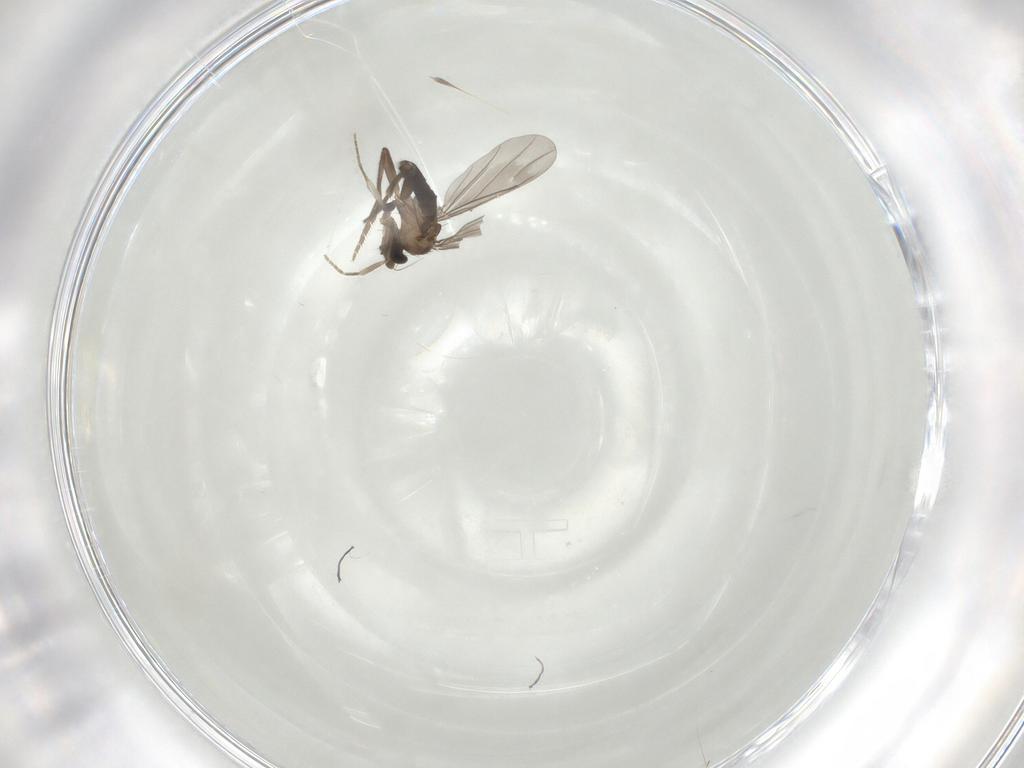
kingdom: Animalia
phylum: Arthropoda
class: Insecta
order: Diptera
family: Phoridae
